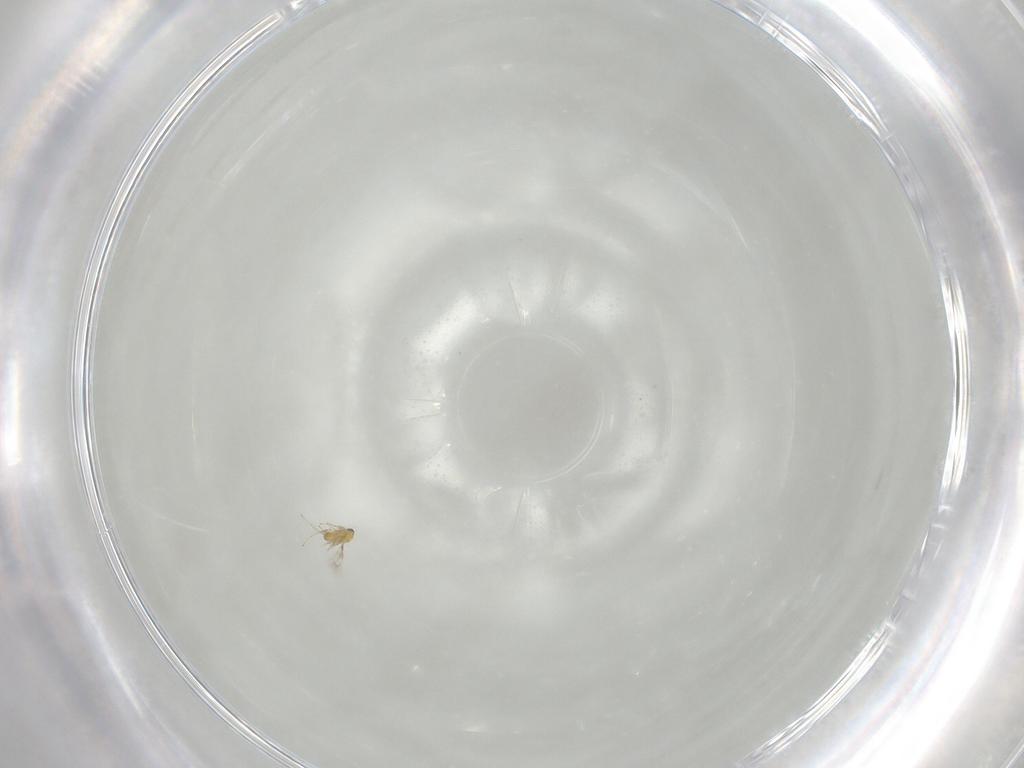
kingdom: Animalia
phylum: Arthropoda
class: Insecta
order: Hymenoptera
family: Trichogrammatidae
